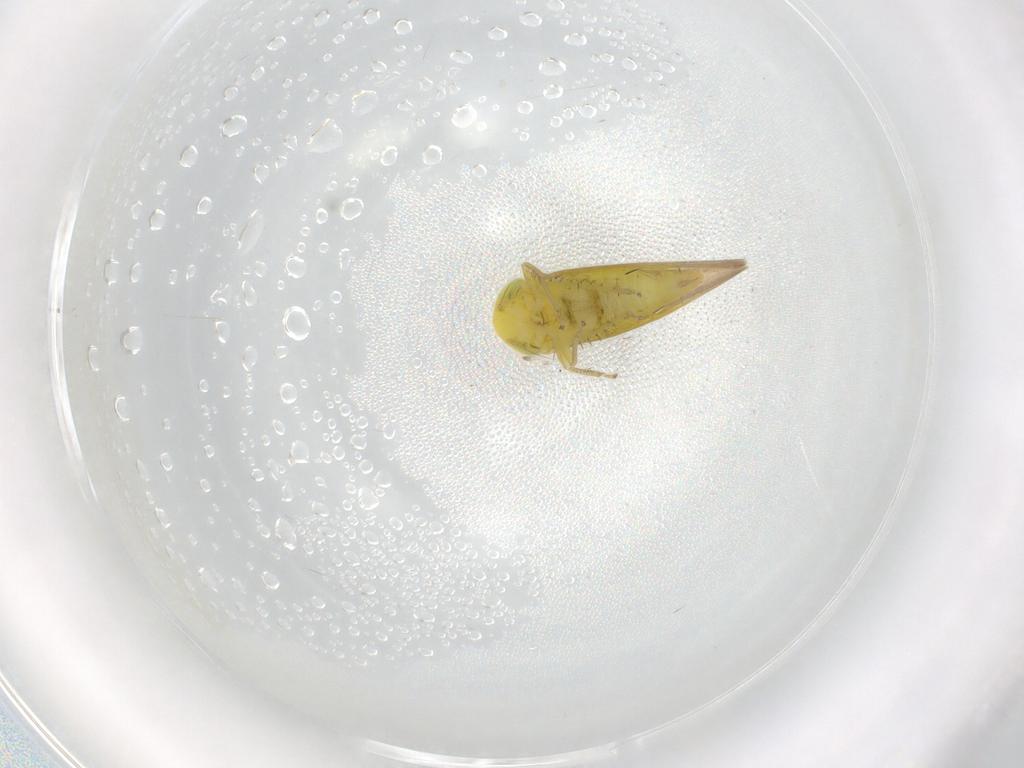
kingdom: Animalia
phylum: Arthropoda
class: Insecta
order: Hemiptera
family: Cicadellidae
